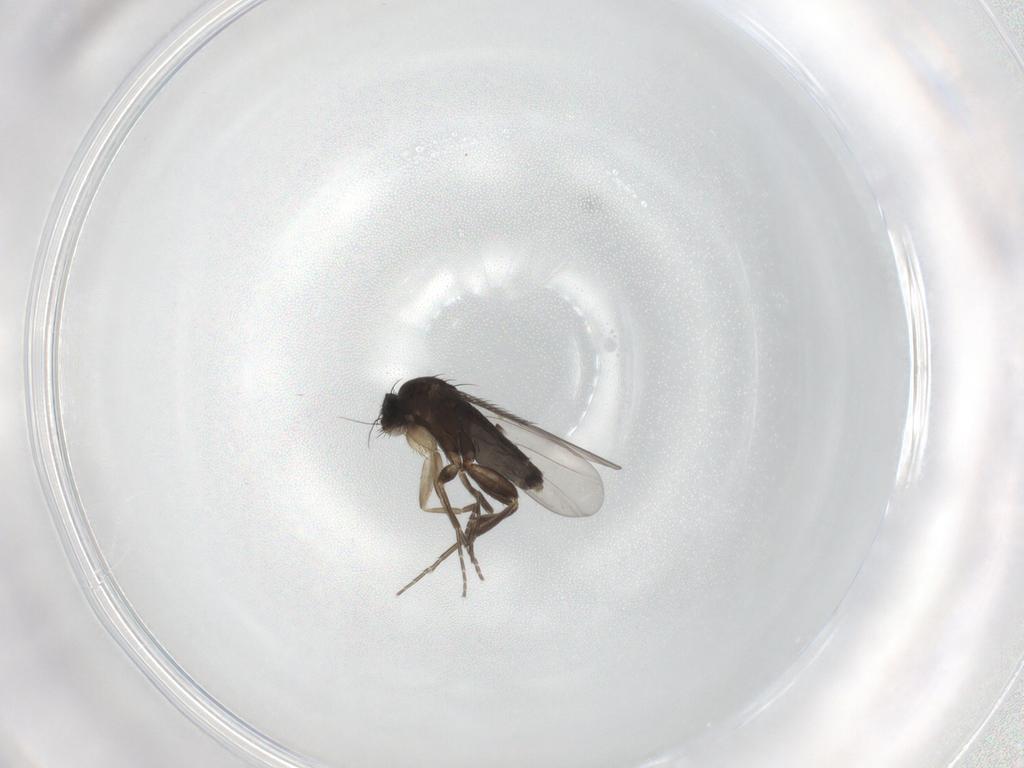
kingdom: Animalia
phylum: Arthropoda
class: Insecta
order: Diptera
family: Phoridae
